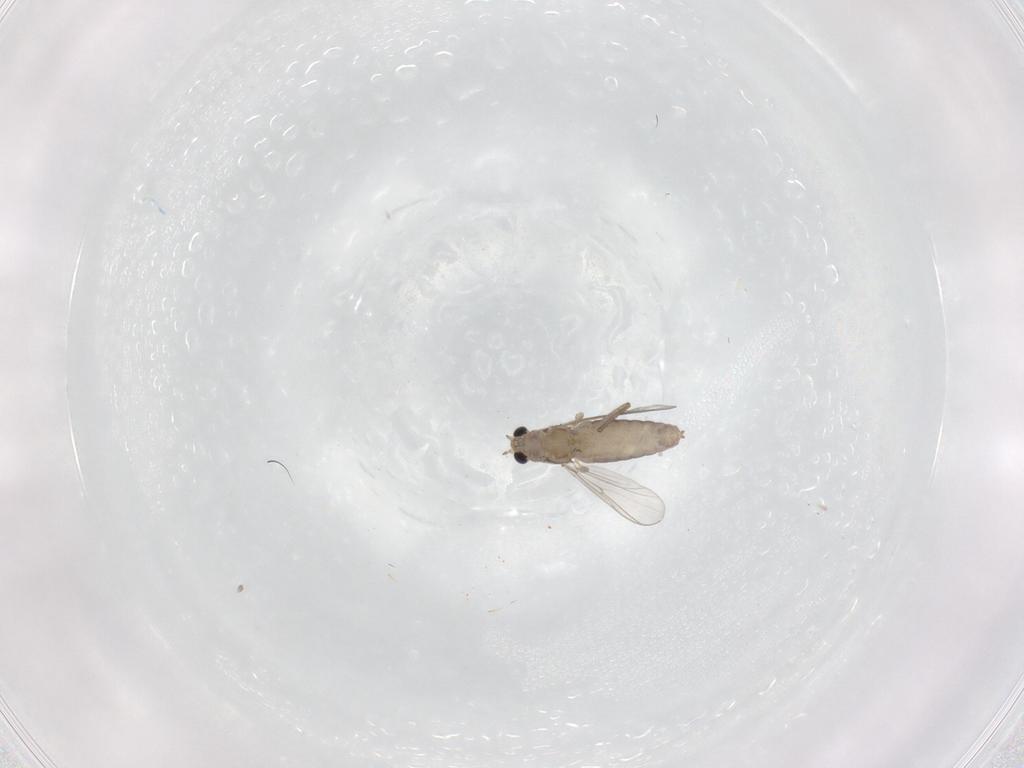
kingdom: Animalia
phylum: Arthropoda
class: Insecta
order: Diptera
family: Chironomidae
